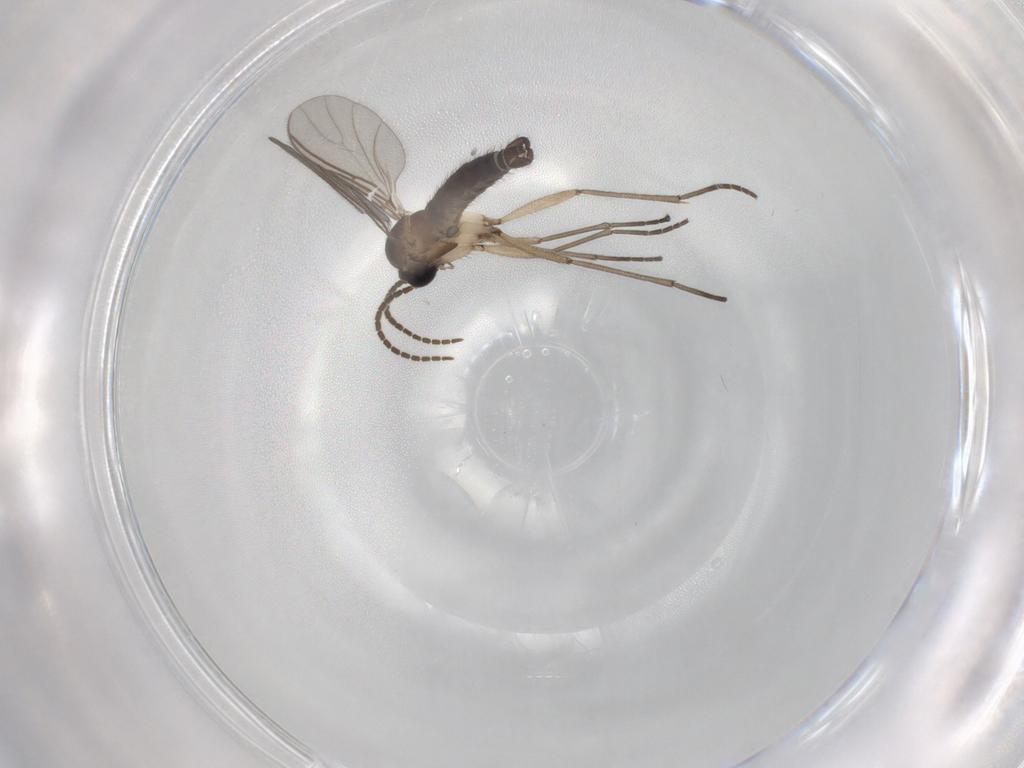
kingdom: Animalia
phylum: Arthropoda
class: Insecta
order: Diptera
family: Sciaridae
